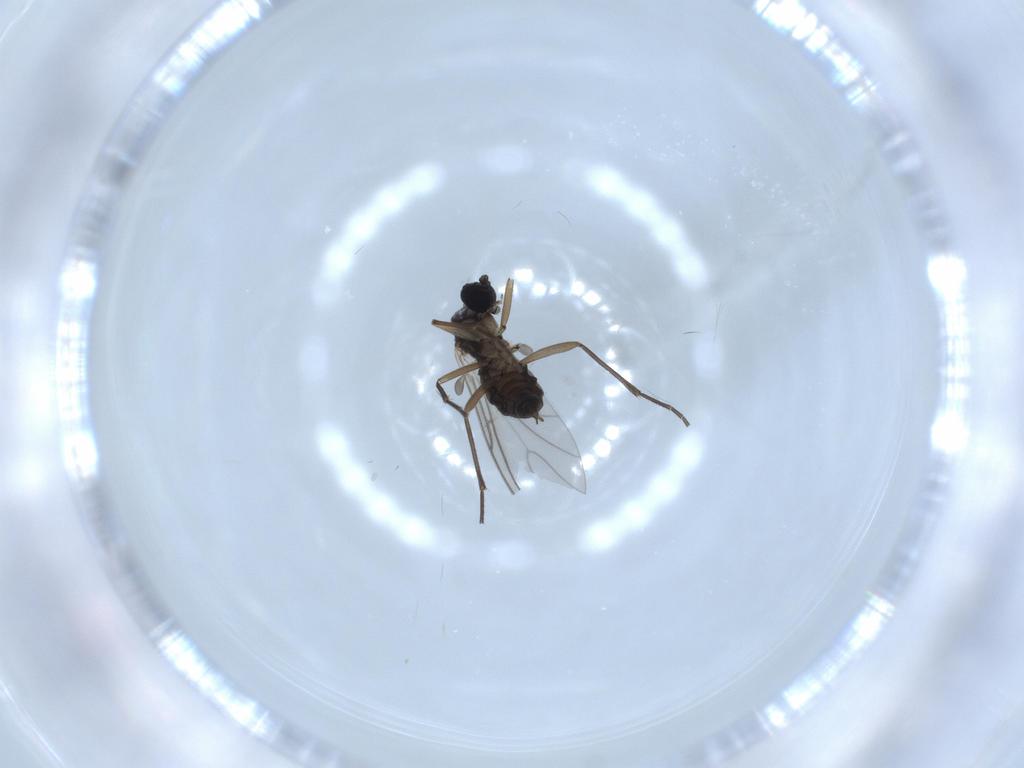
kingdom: Animalia
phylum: Arthropoda
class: Insecta
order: Diptera
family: Sciaridae
